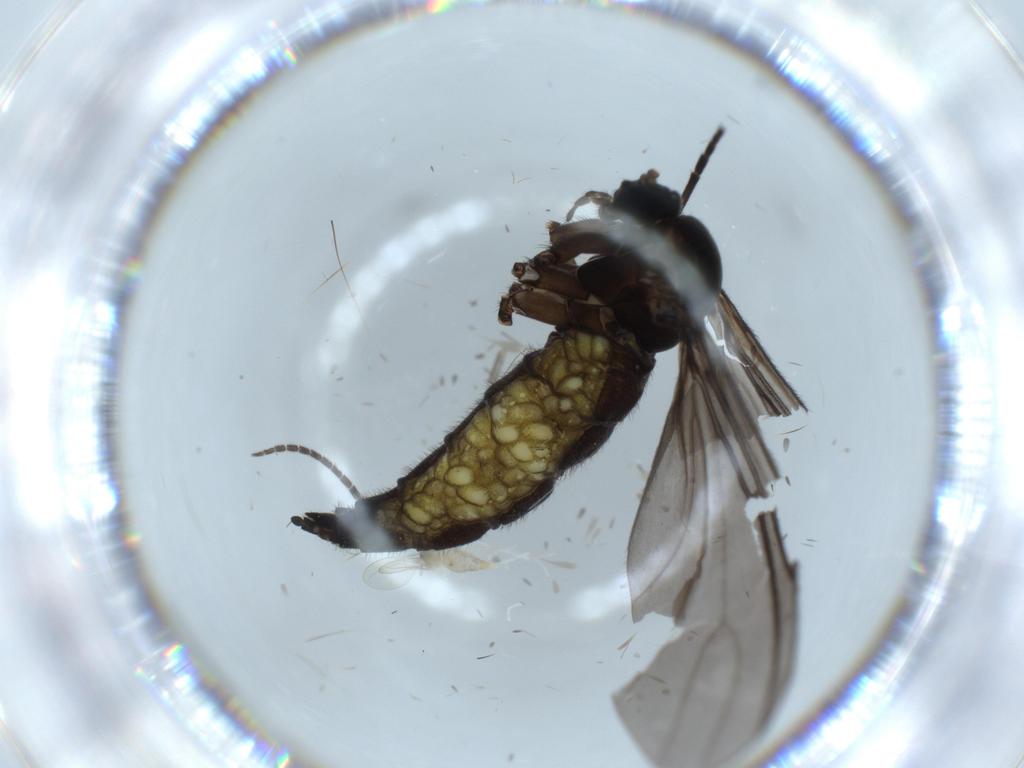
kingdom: Animalia
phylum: Arthropoda
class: Insecta
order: Diptera
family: Sciaridae
